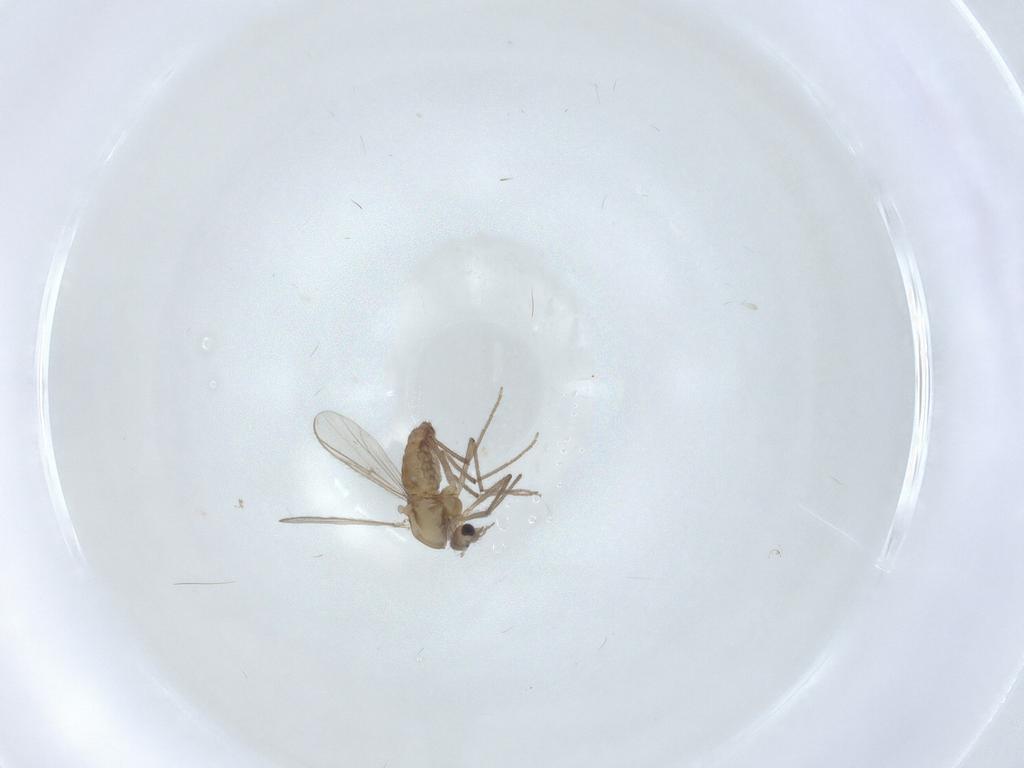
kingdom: Animalia
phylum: Arthropoda
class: Insecta
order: Diptera
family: Chironomidae
